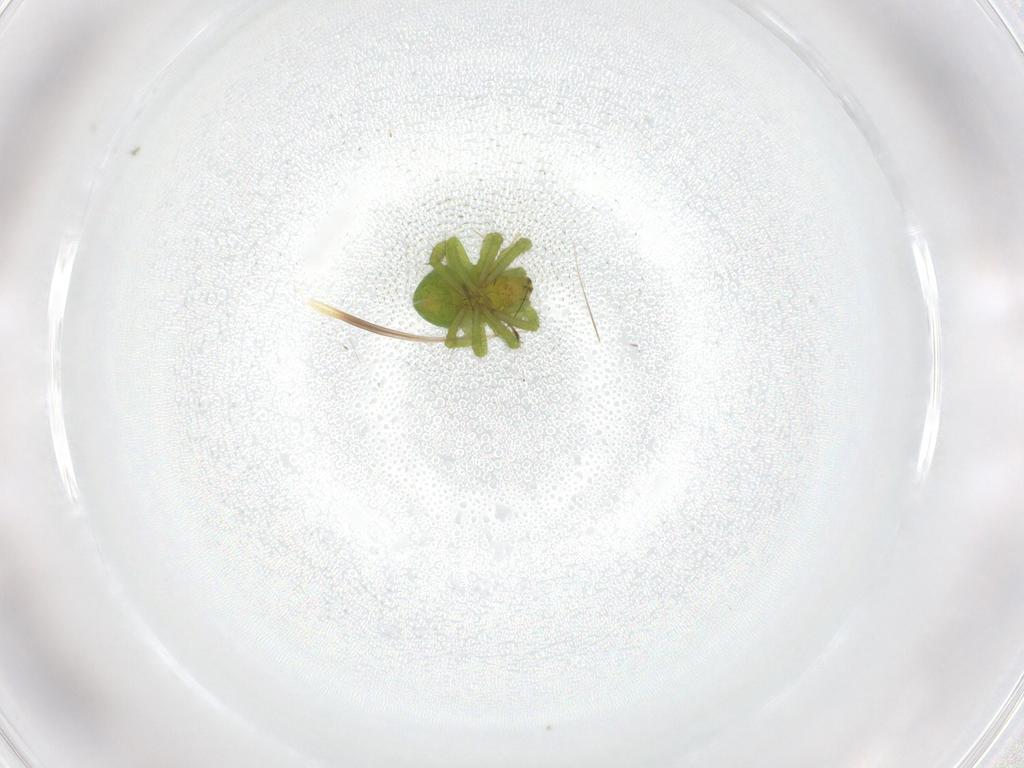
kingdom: Animalia
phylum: Arthropoda
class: Arachnida
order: Araneae
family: Araneidae
